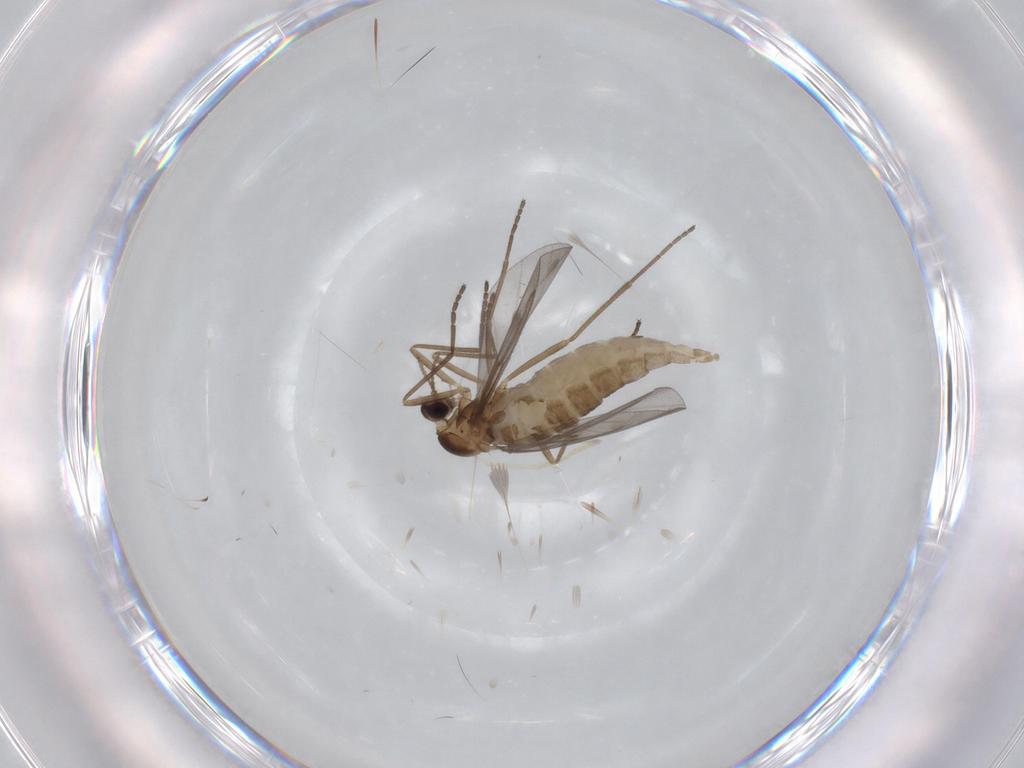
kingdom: Animalia
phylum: Arthropoda
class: Insecta
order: Diptera
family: Cecidomyiidae
